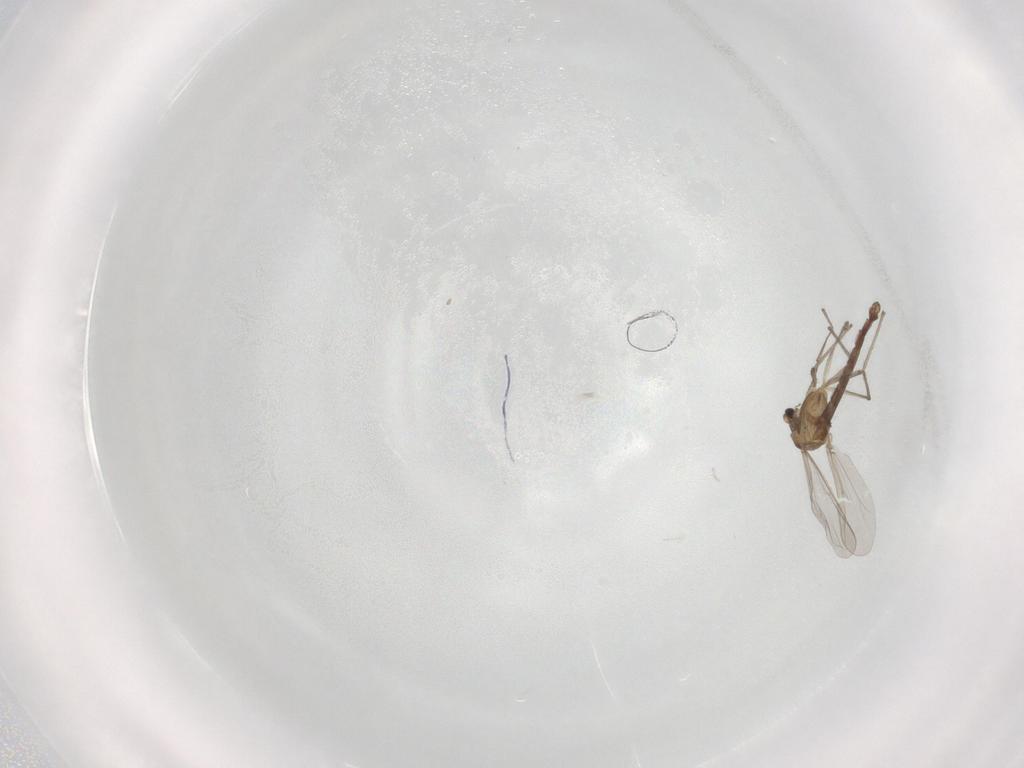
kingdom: Animalia
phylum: Arthropoda
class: Insecta
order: Diptera
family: Chironomidae
